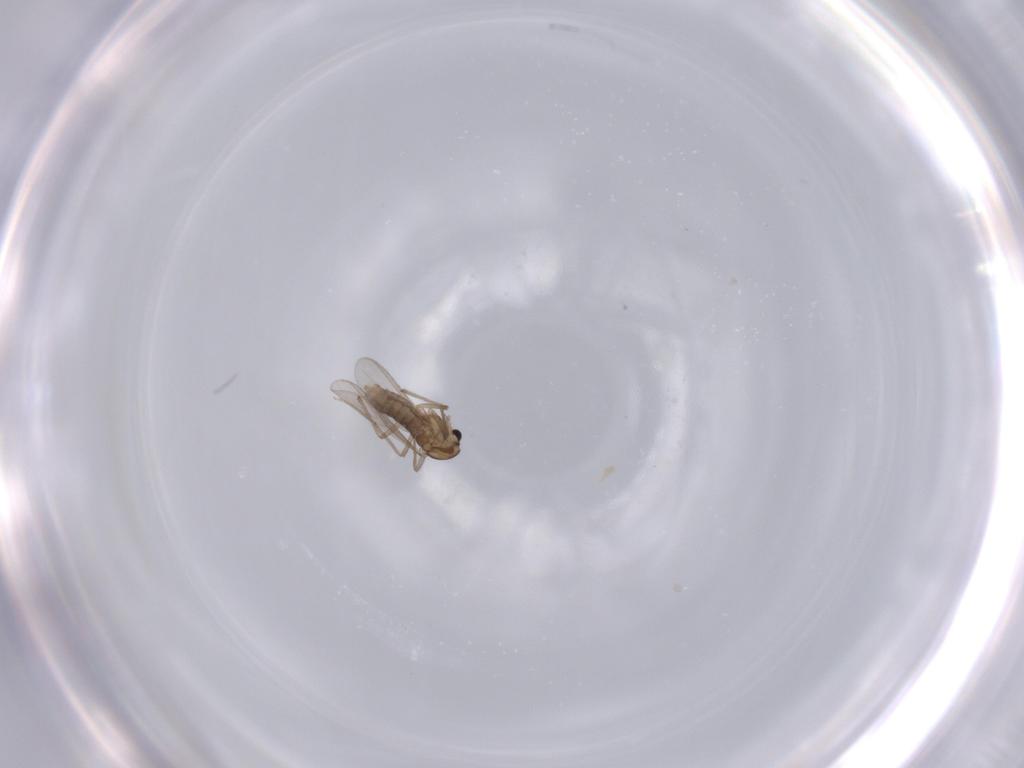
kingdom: Animalia
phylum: Arthropoda
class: Insecta
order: Diptera
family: Chironomidae
